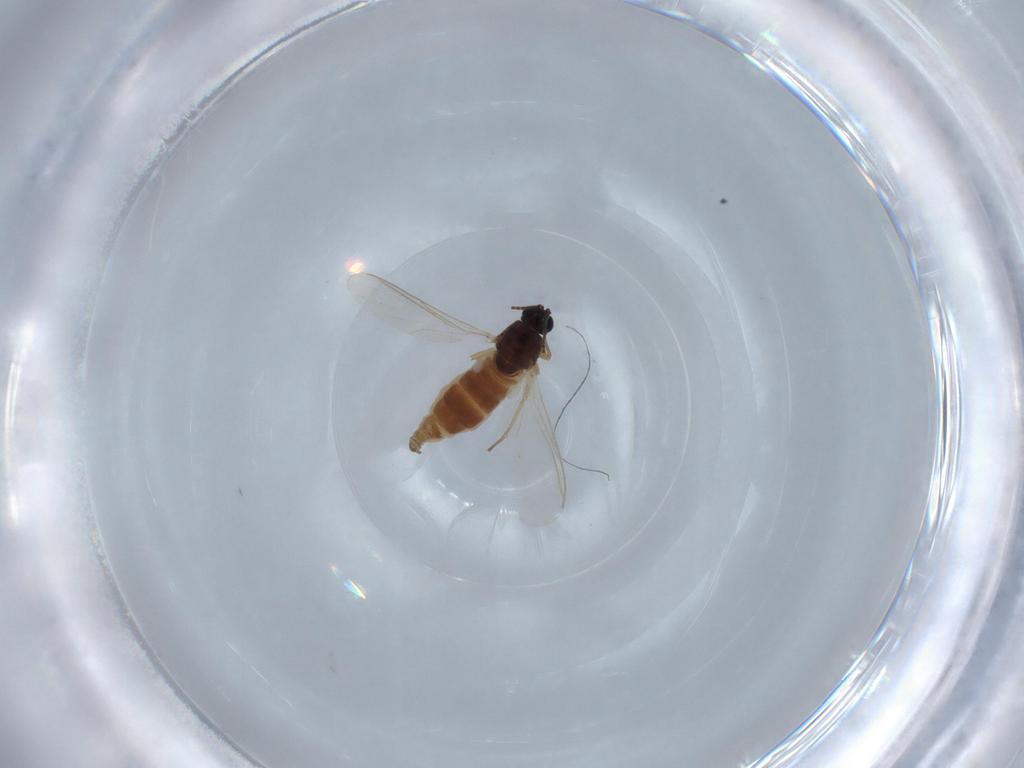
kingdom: Animalia
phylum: Arthropoda
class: Insecta
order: Diptera
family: Sciaridae
